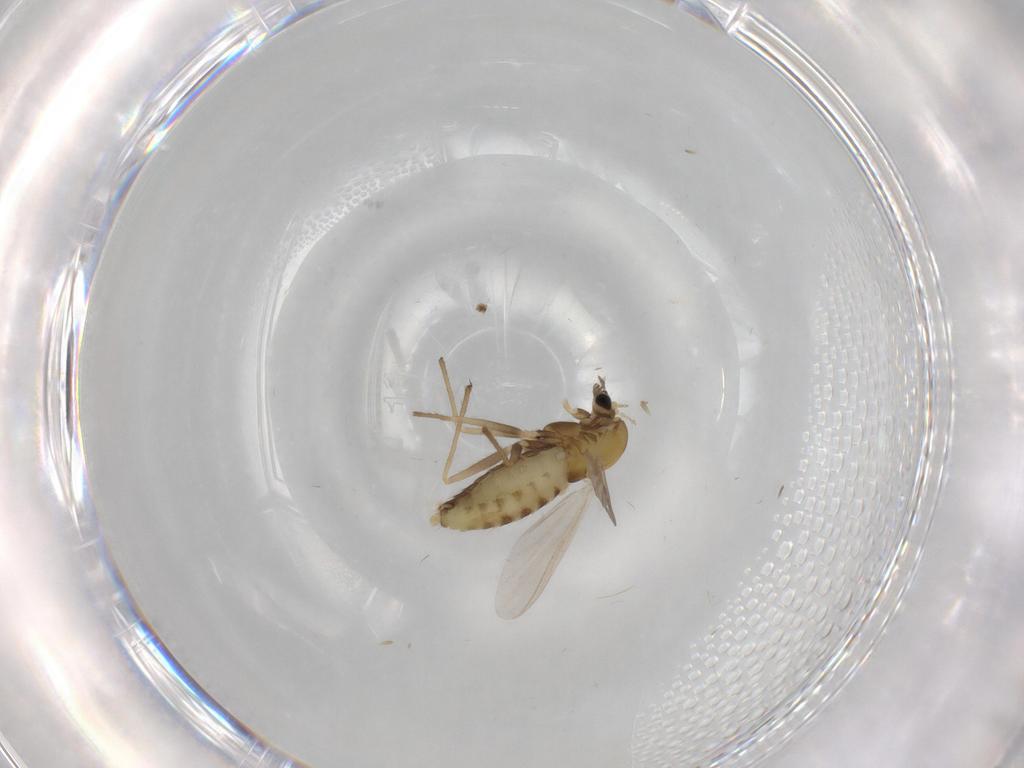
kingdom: Animalia
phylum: Arthropoda
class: Insecta
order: Diptera
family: Chironomidae
